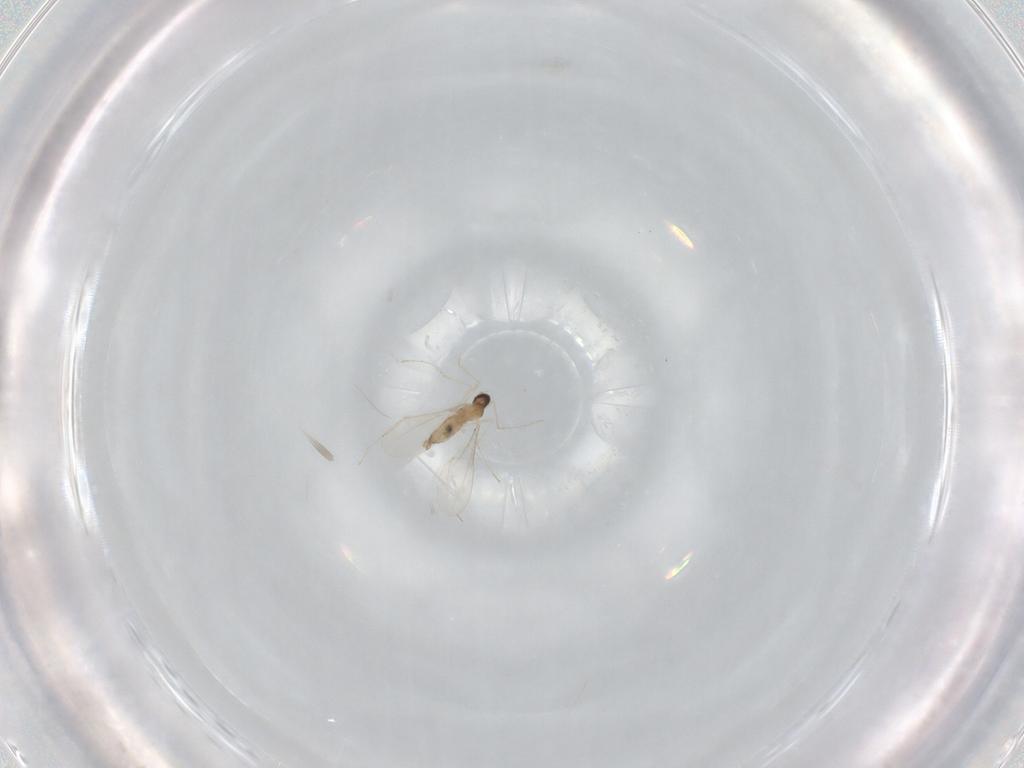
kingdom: Animalia
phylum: Arthropoda
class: Insecta
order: Diptera
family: Cecidomyiidae
